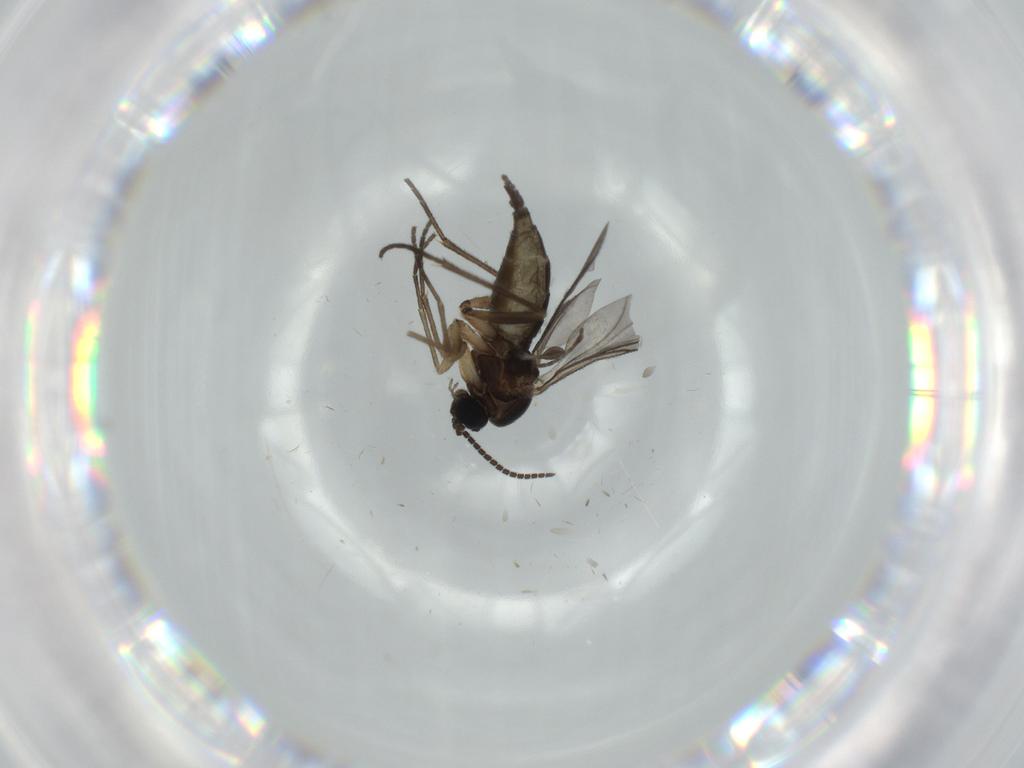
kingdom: Animalia
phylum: Arthropoda
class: Insecta
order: Diptera
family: Sciaridae
